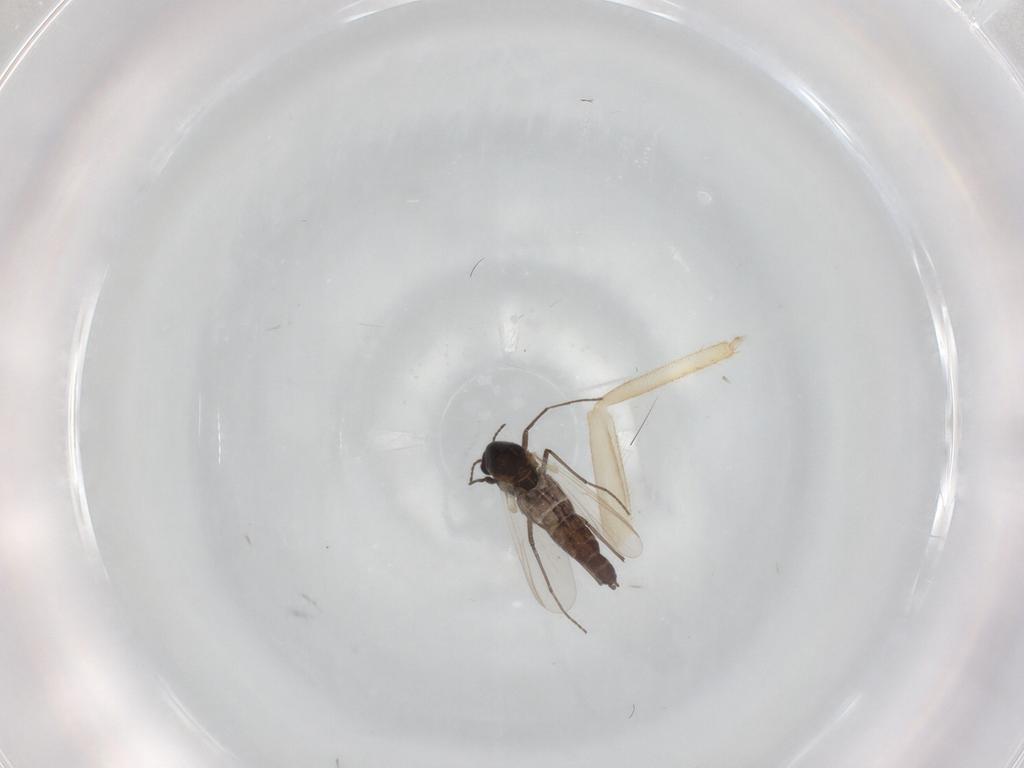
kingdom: Animalia
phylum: Arthropoda
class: Insecta
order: Diptera
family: Chironomidae
